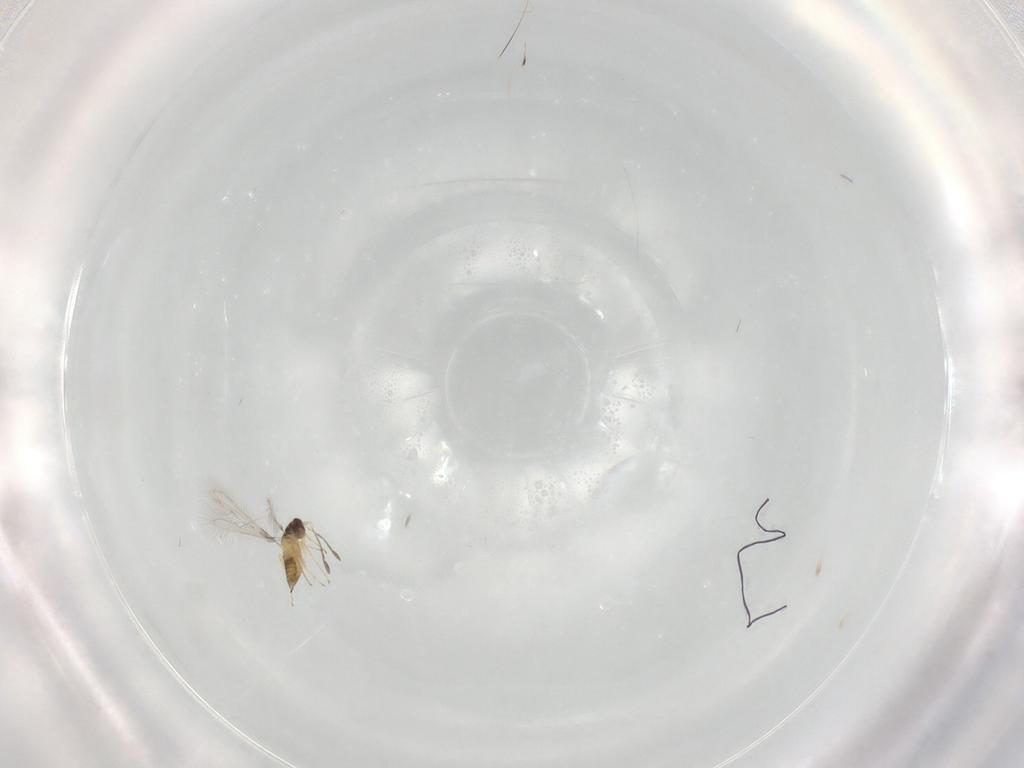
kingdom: Animalia
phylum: Arthropoda
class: Insecta
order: Hymenoptera
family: Mymaridae
